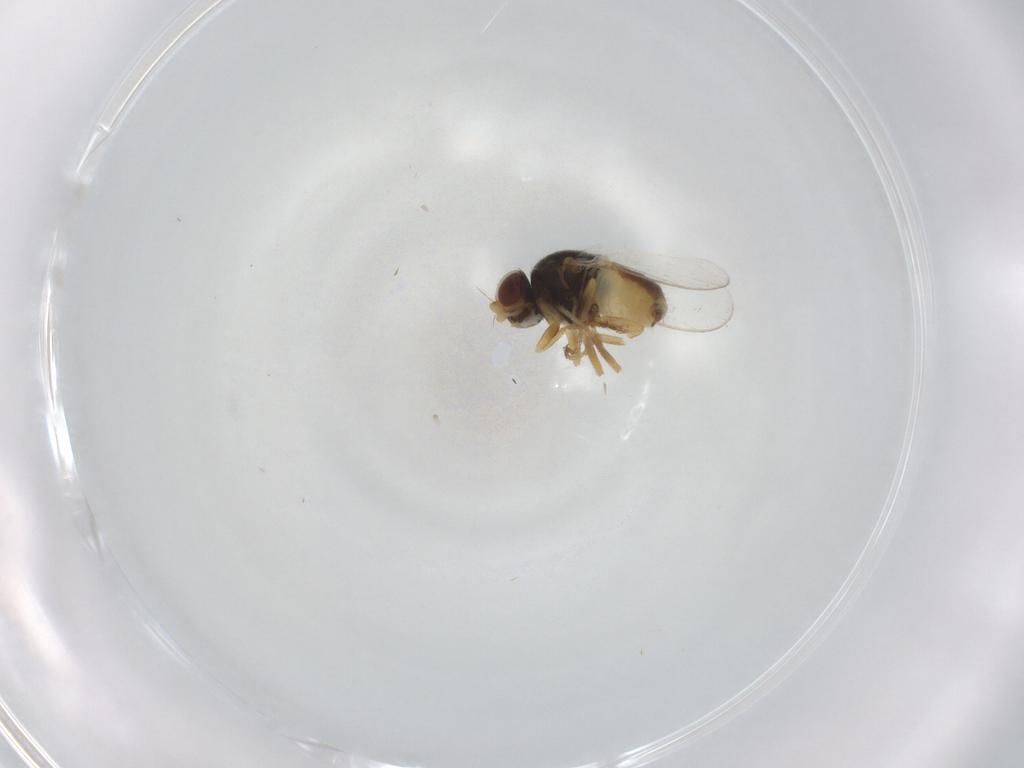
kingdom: Animalia
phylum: Arthropoda
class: Insecta
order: Diptera
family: Chloropidae
